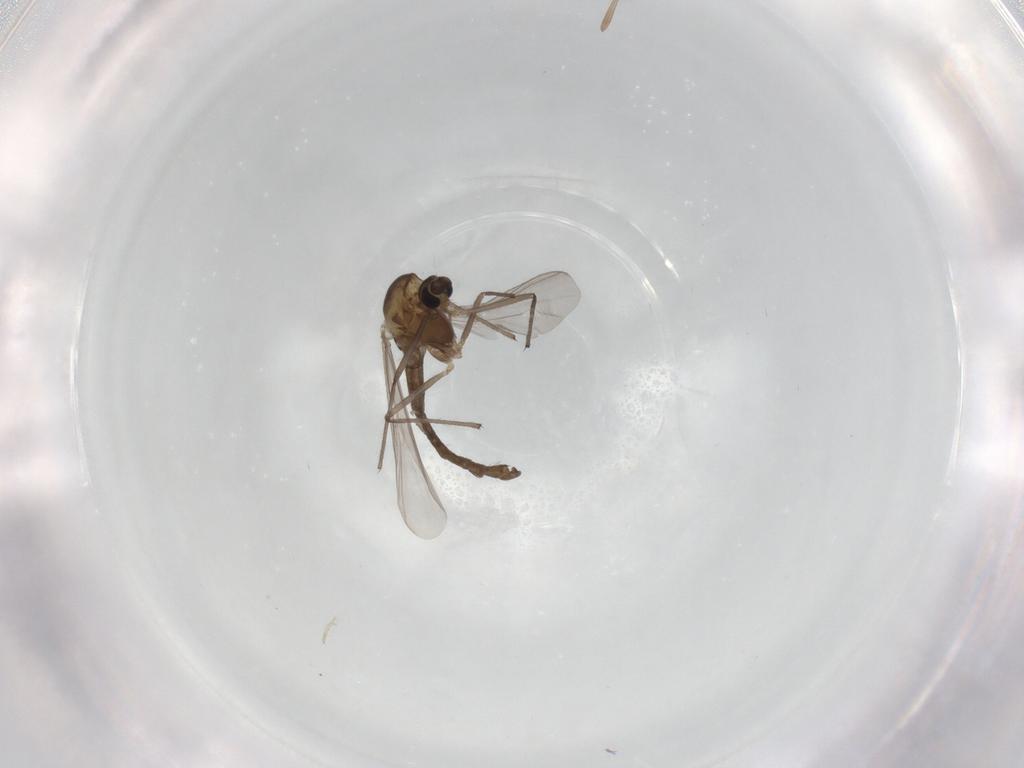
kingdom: Animalia
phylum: Arthropoda
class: Insecta
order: Diptera
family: Chironomidae
